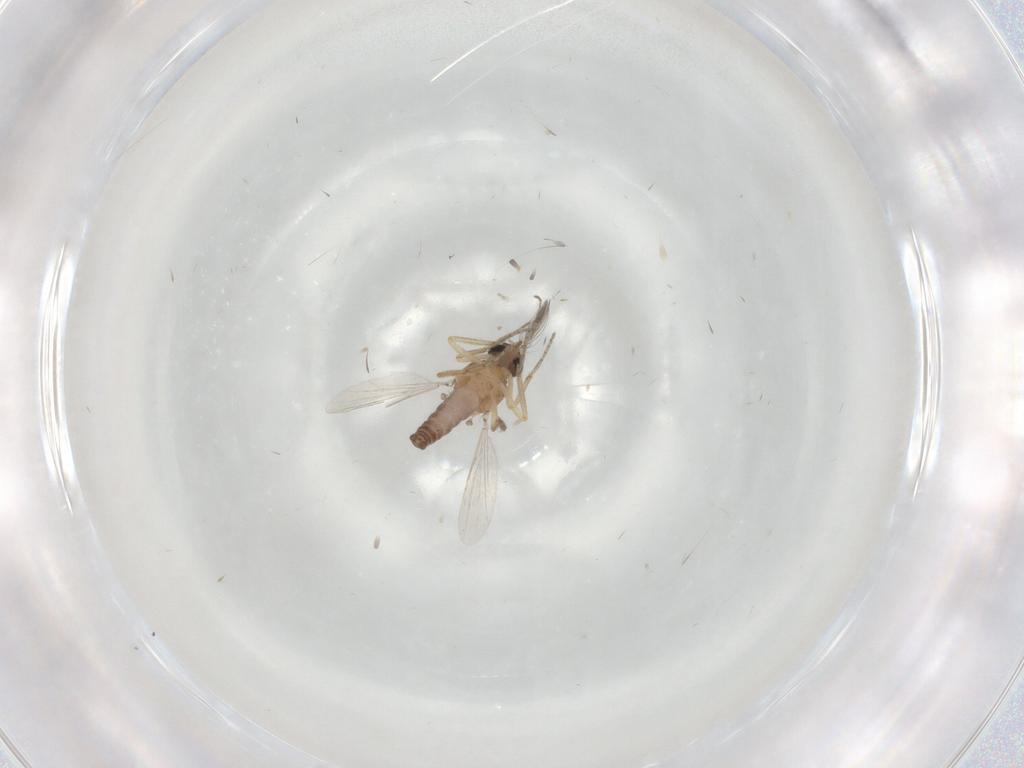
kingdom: Animalia
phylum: Arthropoda
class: Insecta
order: Diptera
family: Ceratopogonidae
